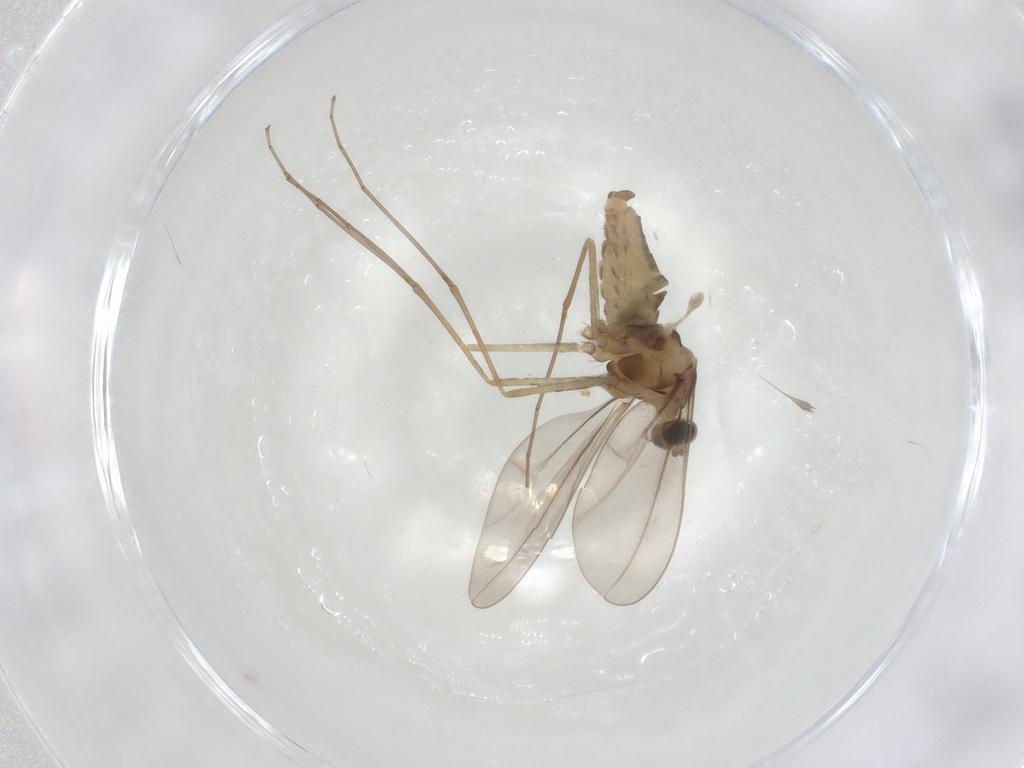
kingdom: Animalia
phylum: Arthropoda
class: Insecta
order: Diptera
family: Cecidomyiidae
